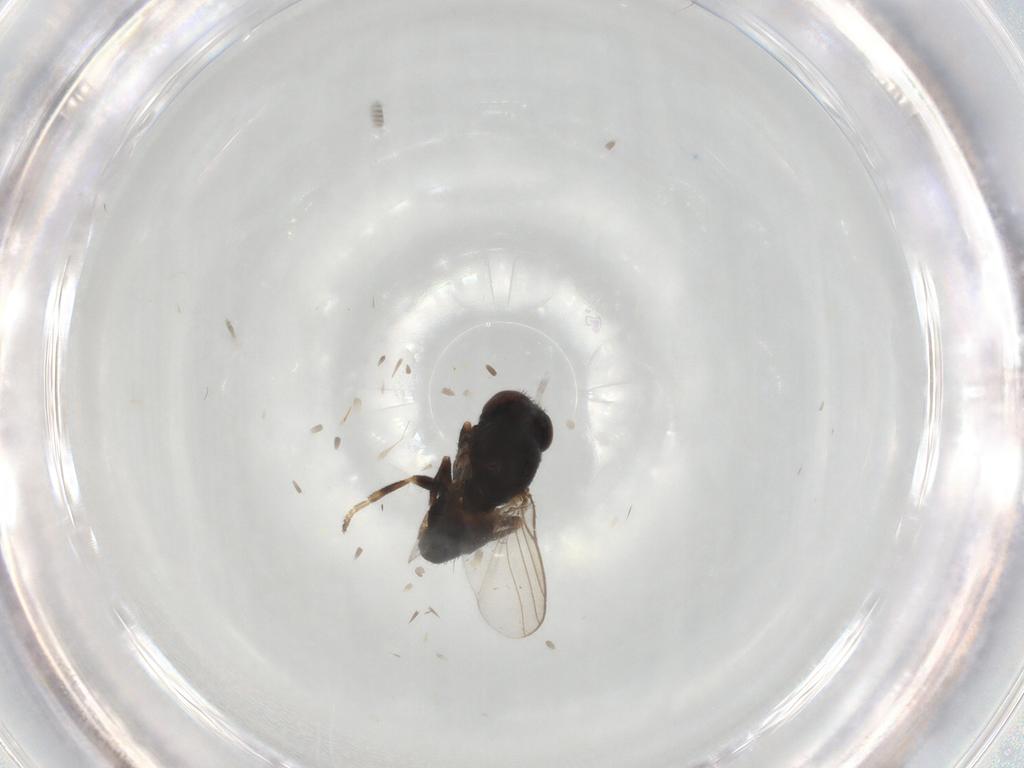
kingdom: Animalia
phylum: Arthropoda
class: Insecta
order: Diptera
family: Chloropidae
